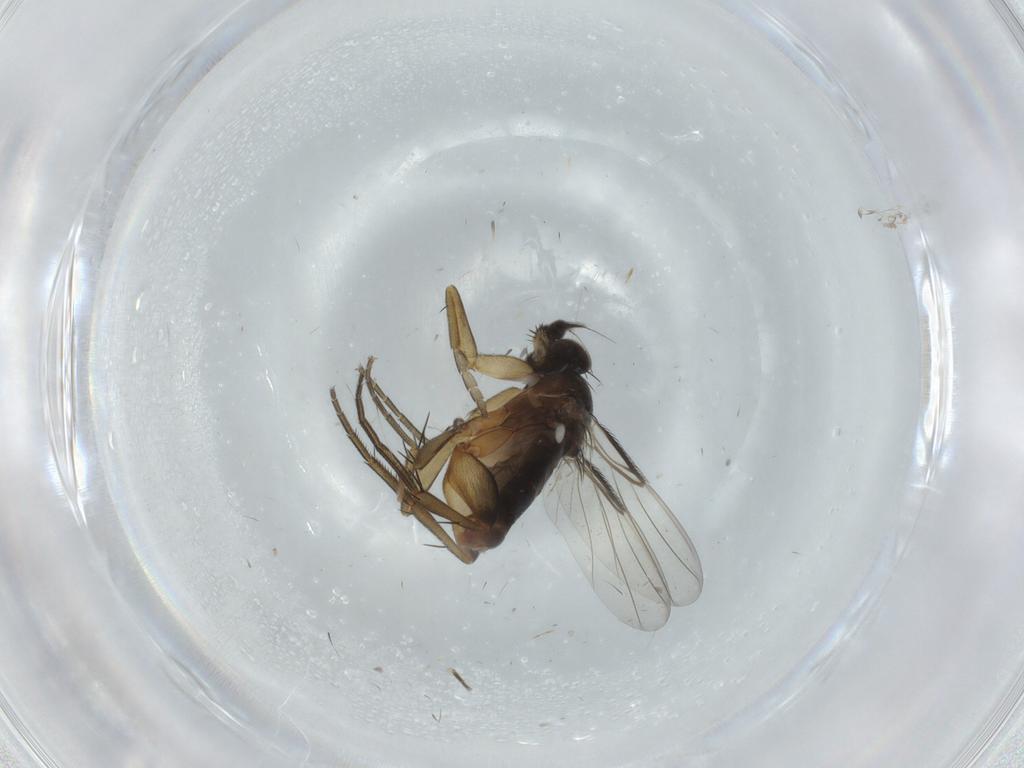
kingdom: Animalia
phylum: Arthropoda
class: Insecta
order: Diptera
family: Phoridae
